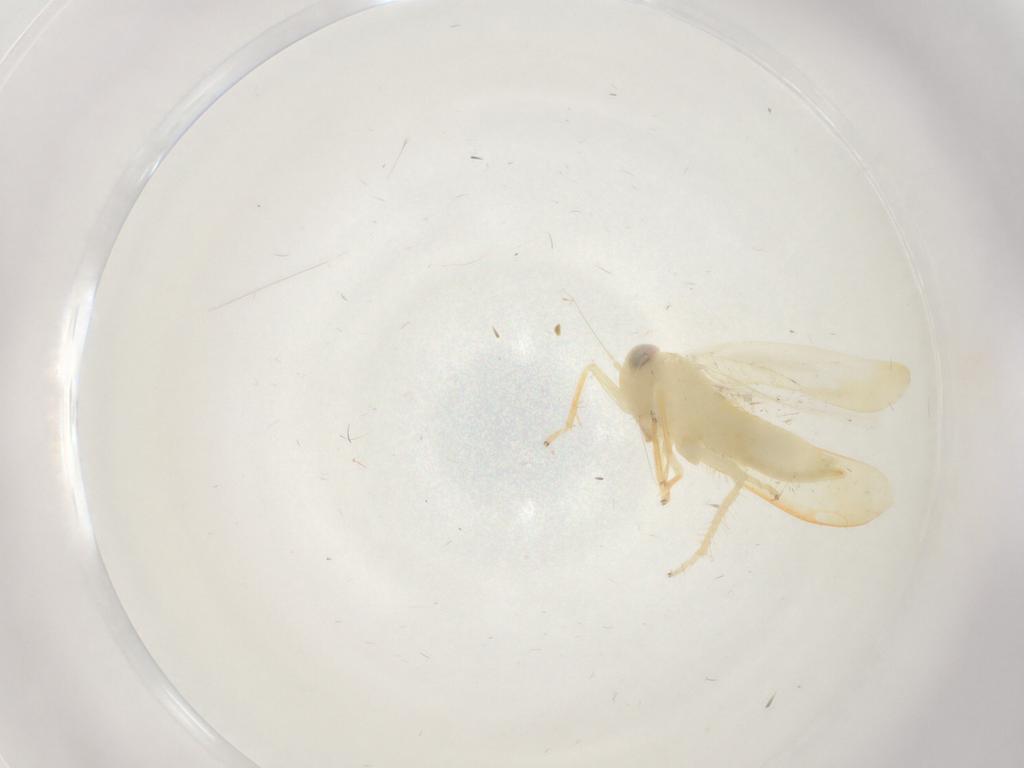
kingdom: Animalia
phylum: Arthropoda
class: Insecta
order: Hemiptera
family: Cicadellidae
